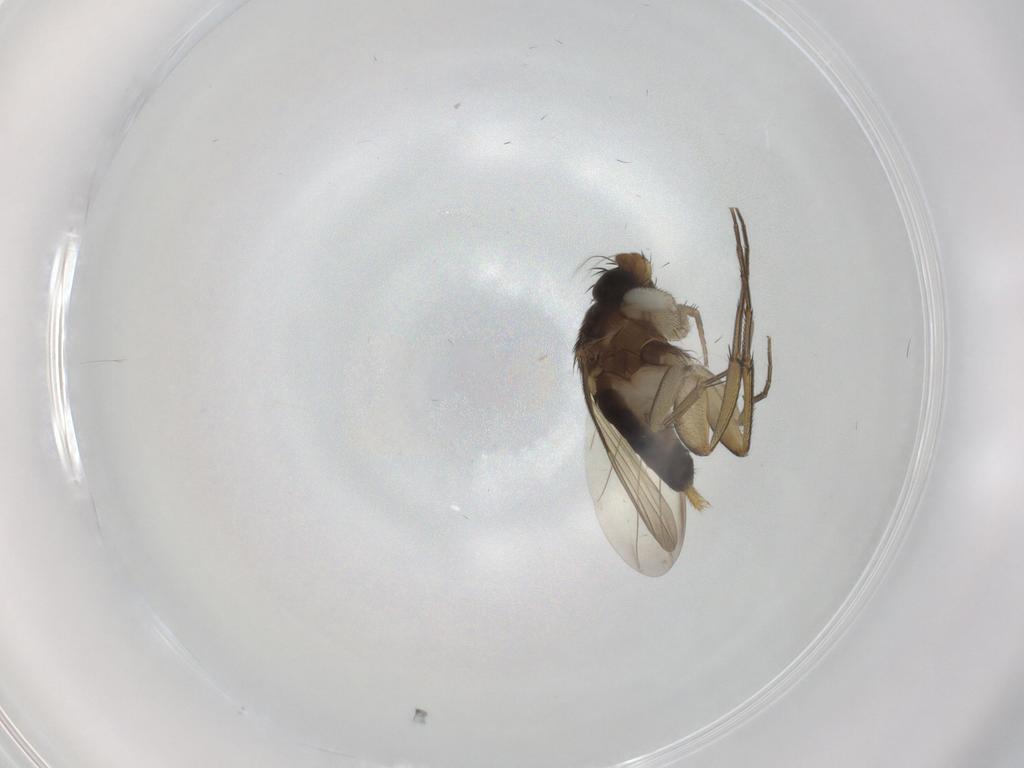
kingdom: Animalia
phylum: Arthropoda
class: Insecta
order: Diptera
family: Phoridae
